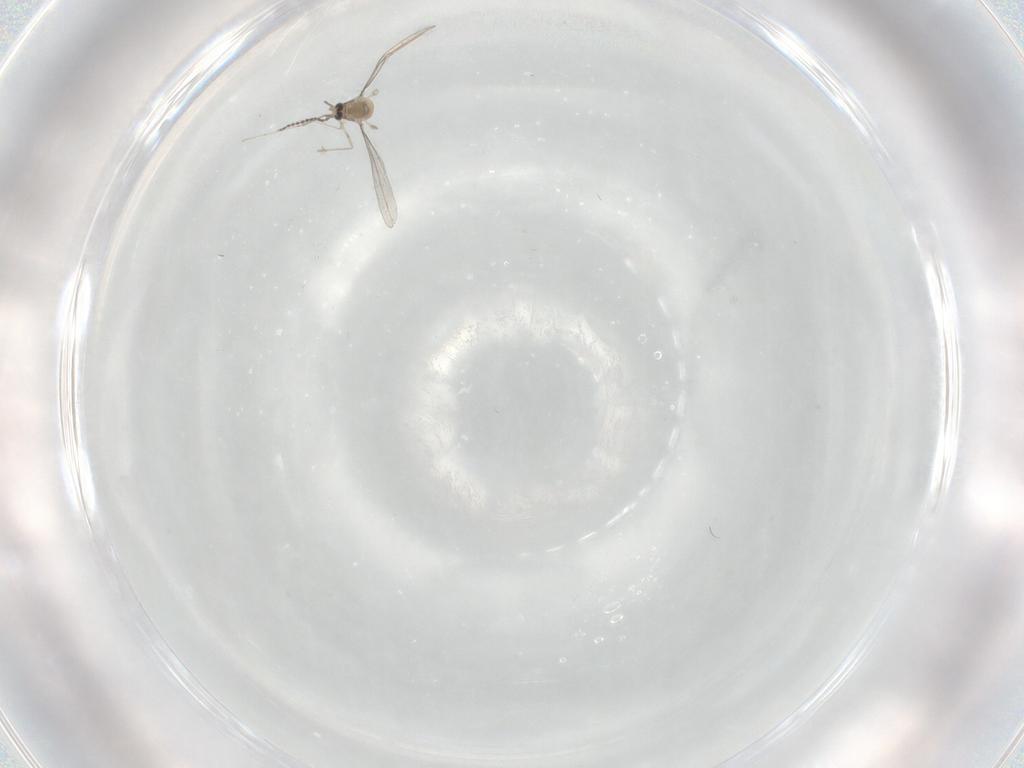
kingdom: Animalia
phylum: Arthropoda
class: Insecta
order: Diptera
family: Cecidomyiidae
